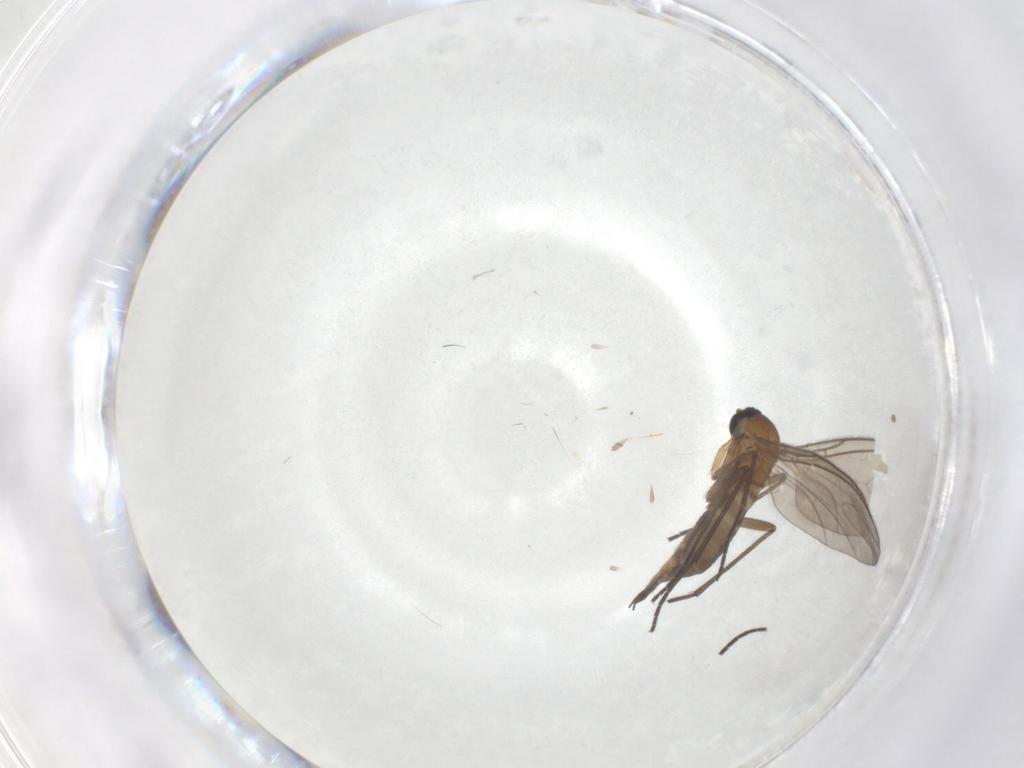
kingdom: Animalia
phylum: Arthropoda
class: Insecta
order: Diptera
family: Sciaridae
